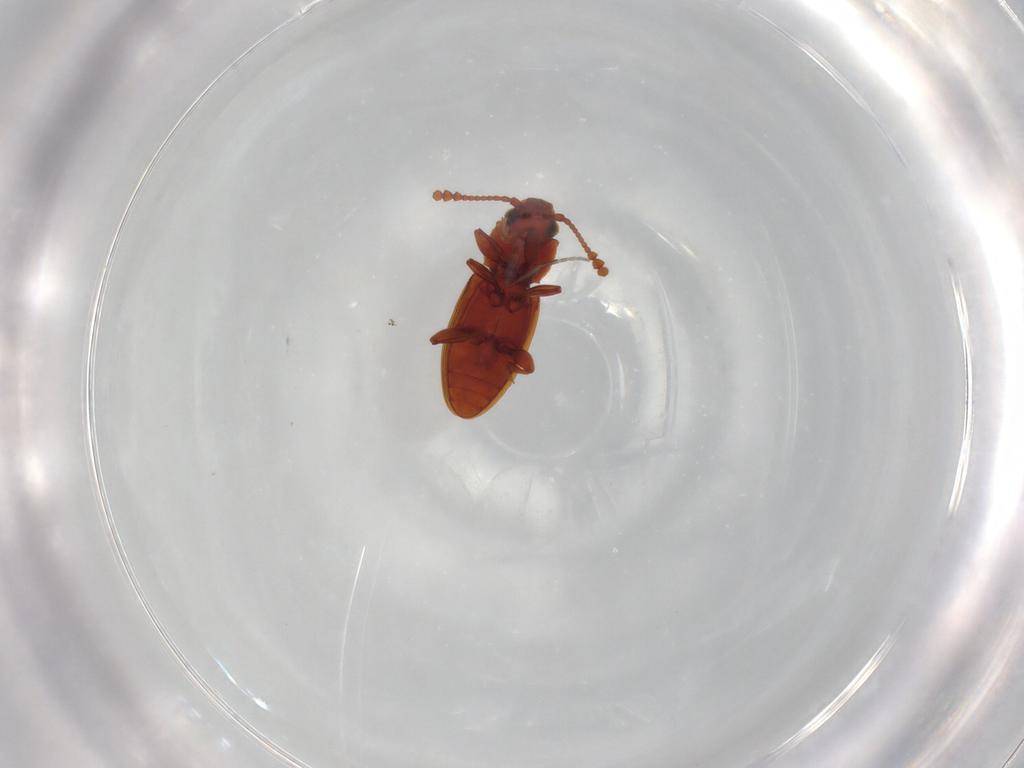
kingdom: Animalia
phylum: Arthropoda
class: Insecta
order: Coleoptera
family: Silvanidae
